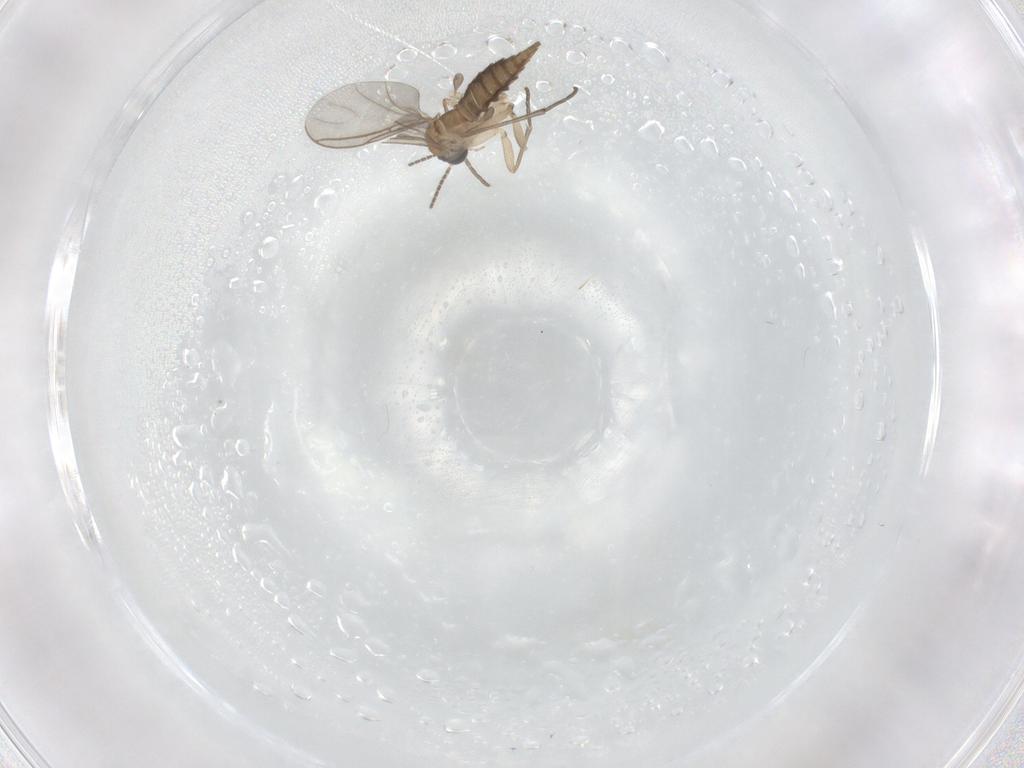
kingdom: Animalia
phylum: Arthropoda
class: Insecta
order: Diptera
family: Sciaridae
